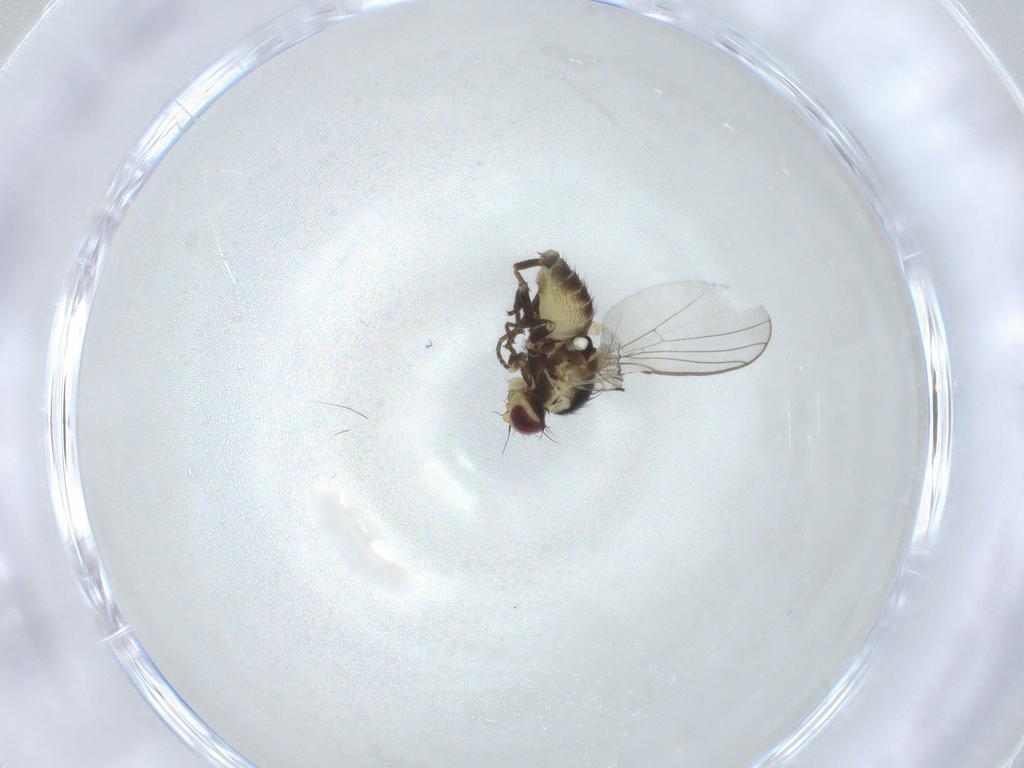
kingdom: Animalia
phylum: Arthropoda
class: Insecta
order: Diptera
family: Agromyzidae
